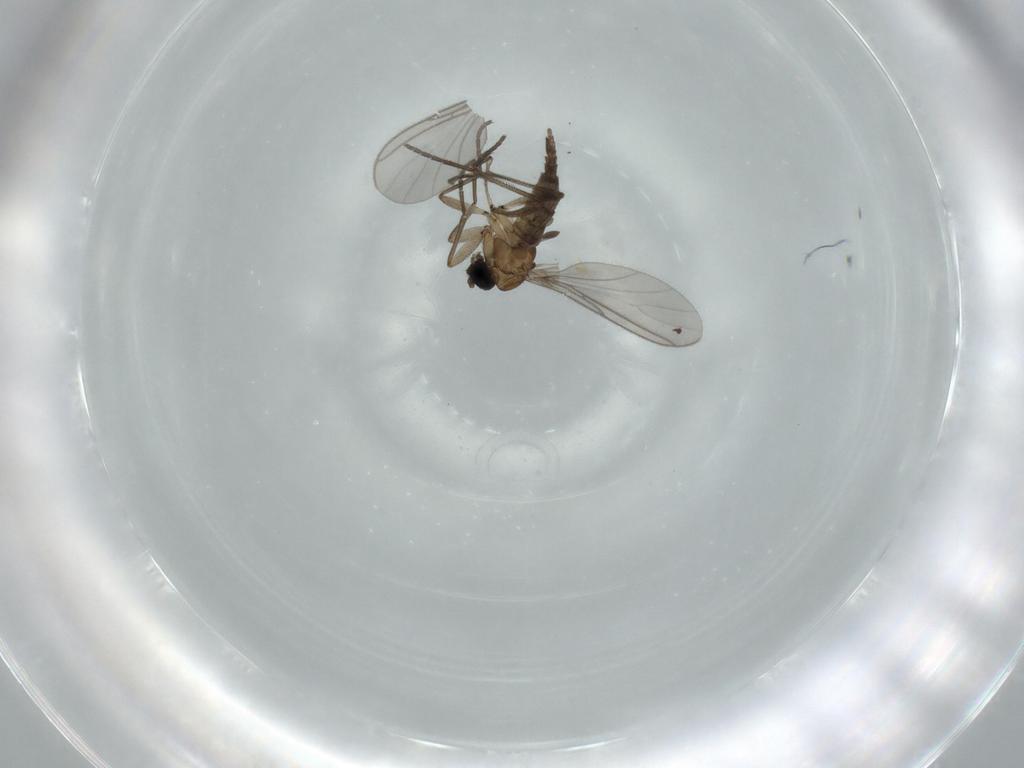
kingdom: Animalia
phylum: Arthropoda
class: Insecta
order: Diptera
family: Sciaridae
